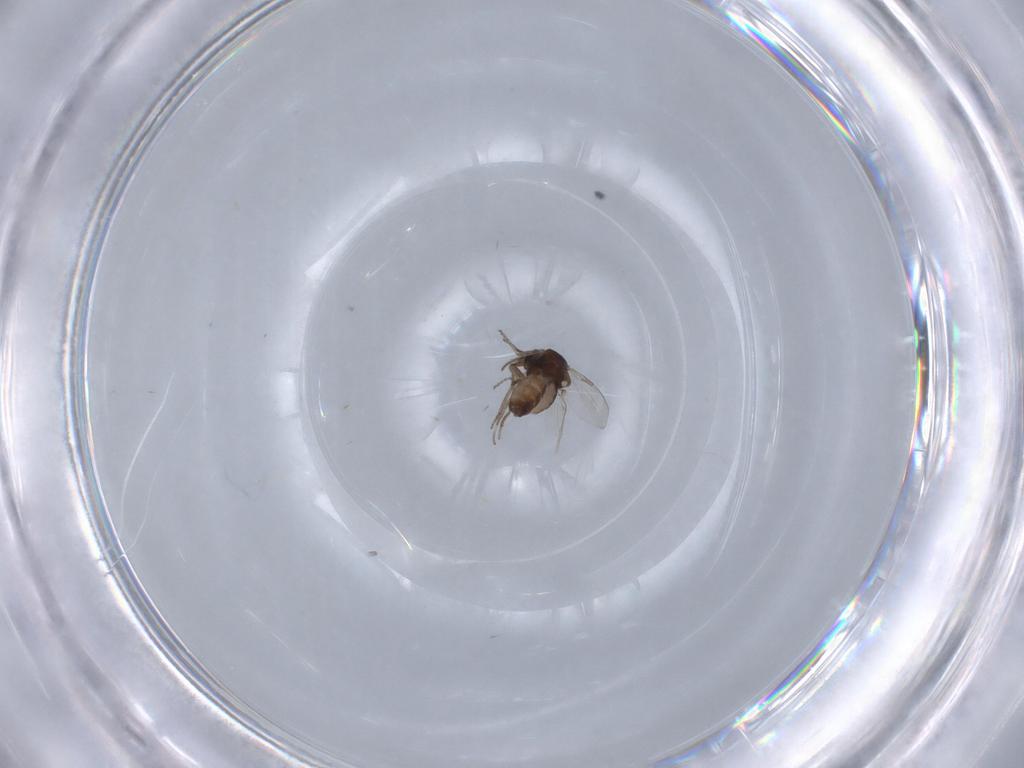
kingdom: Animalia
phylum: Arthropoda
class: Insecta
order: Diptera
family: Ceratopogonidae
